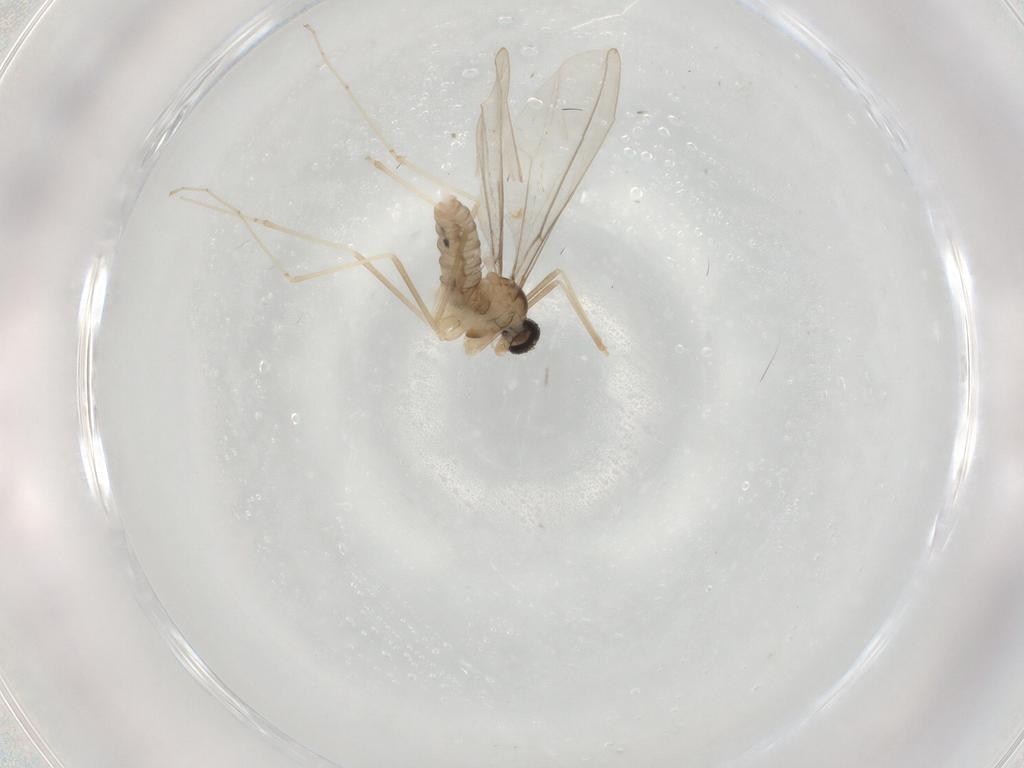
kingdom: Animalia
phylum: Arthropoda
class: Insecta
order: Diptera
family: Cecidomyiidae
